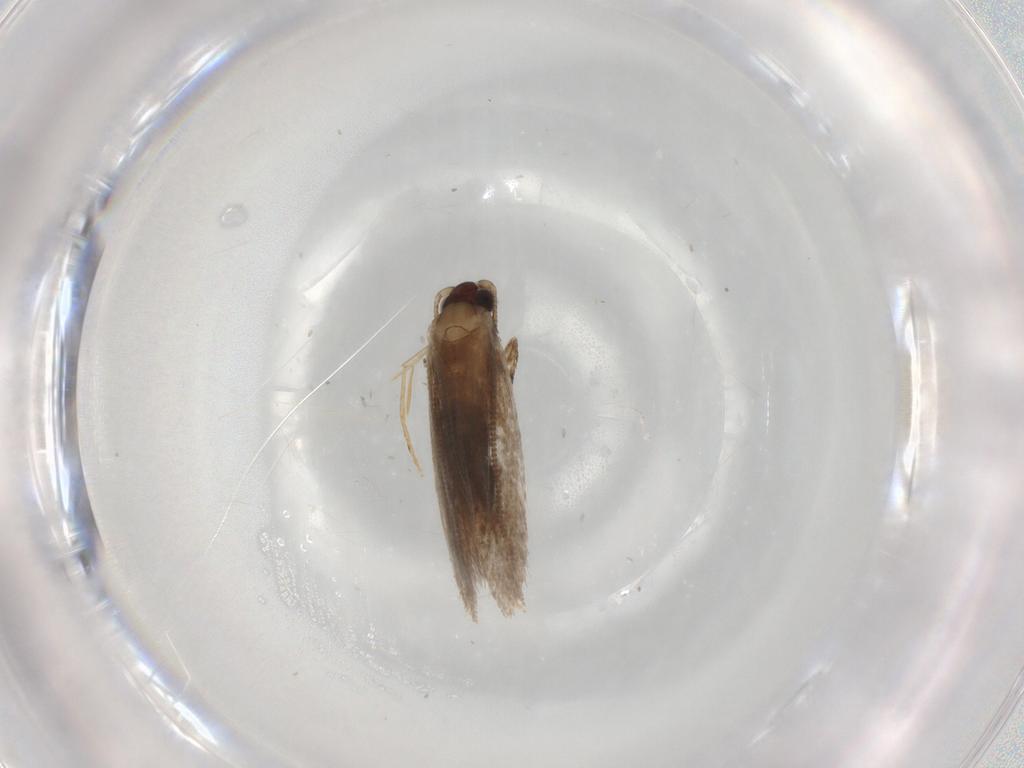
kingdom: Animalia
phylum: Arthropoda
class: Insecta
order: Lepidoptera
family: Tineidae
